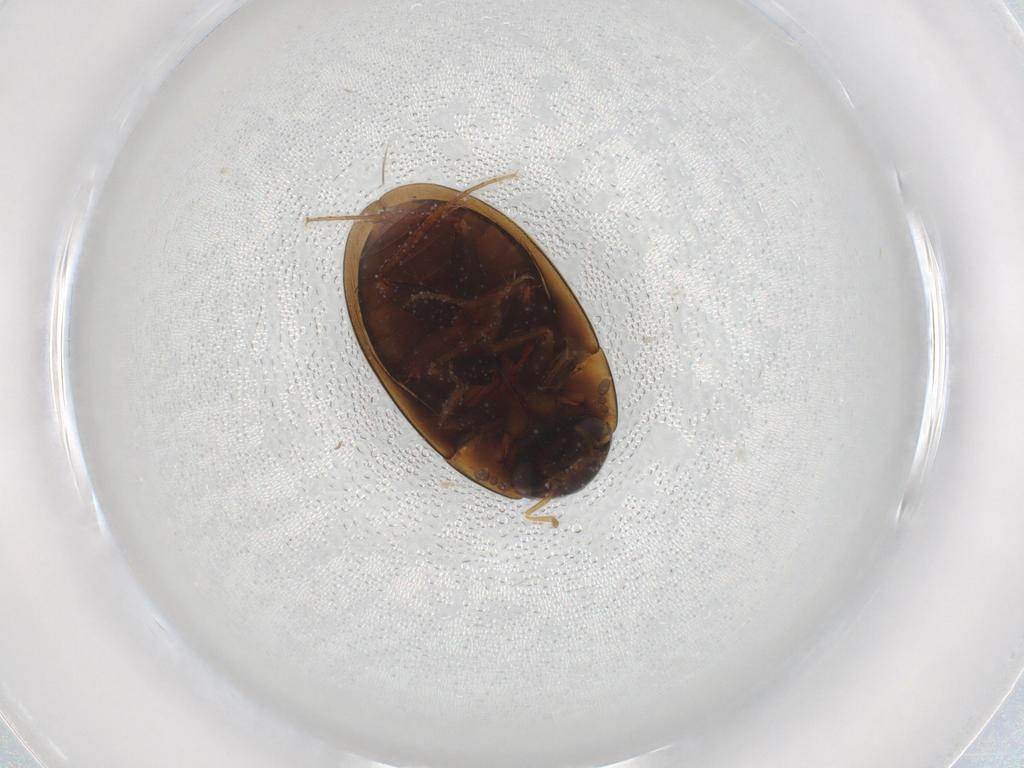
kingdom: Animalia
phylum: Arthropoda
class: Insecta
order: Coleoptera
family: Hydrophilidae
